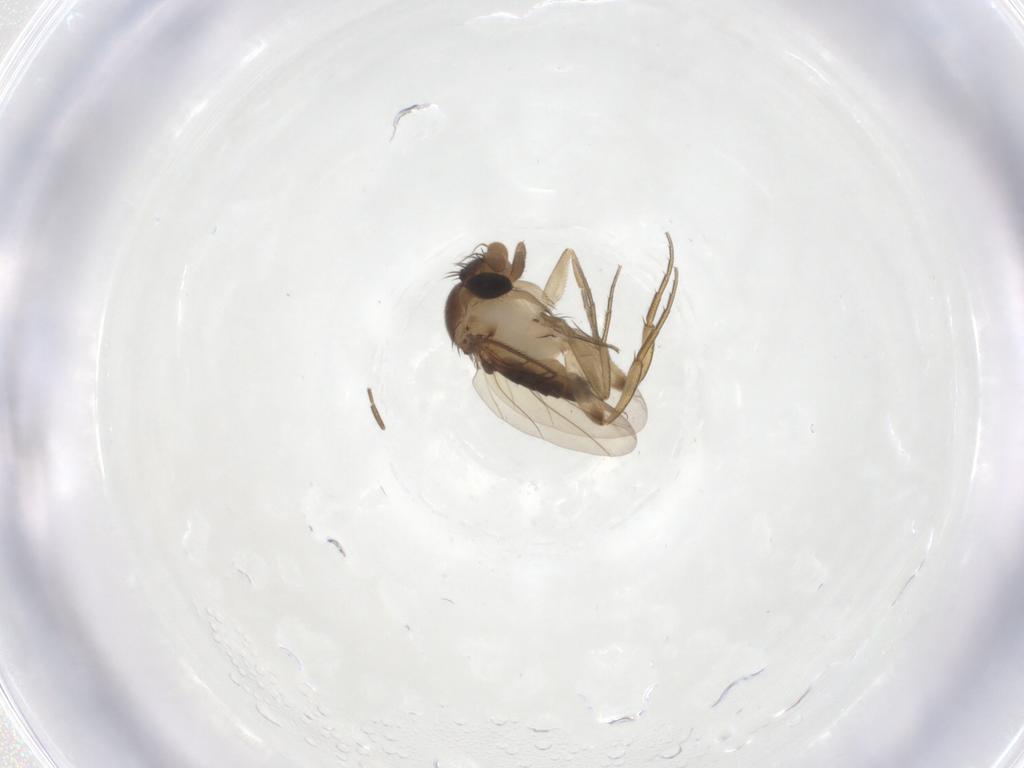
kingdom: Animalia
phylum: Arthropoda
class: Insecta
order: Diptera
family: Phoridae
